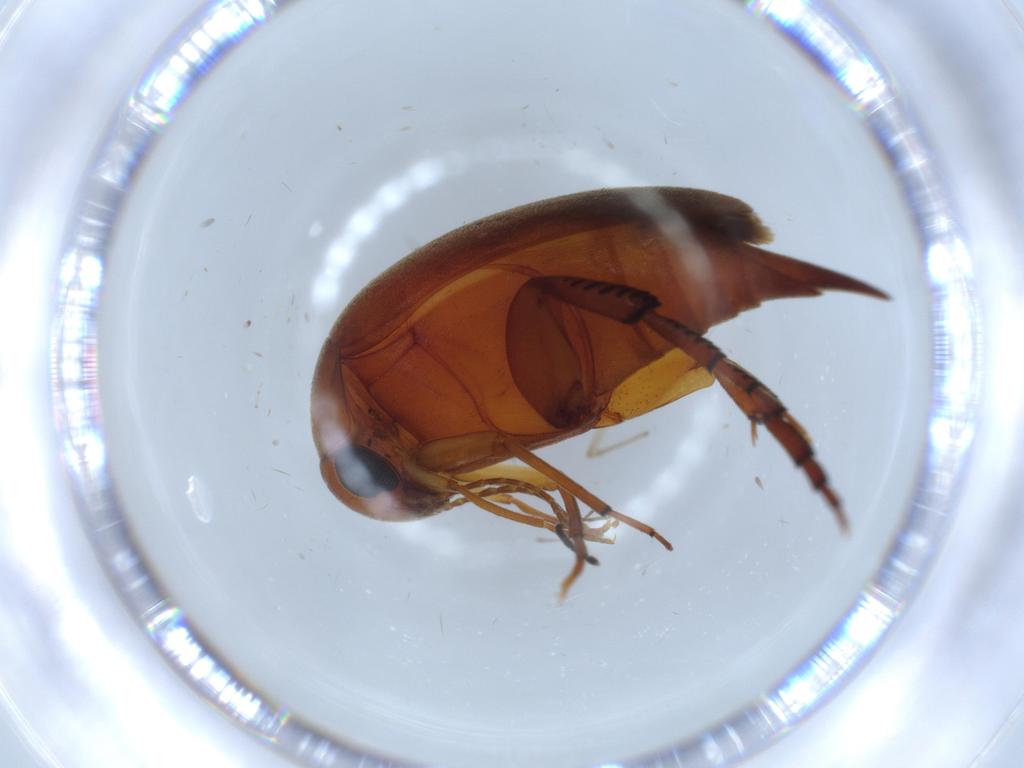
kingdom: Animalia
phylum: Arthropoda
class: Insecta
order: Coleoptera
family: Mordellidae
